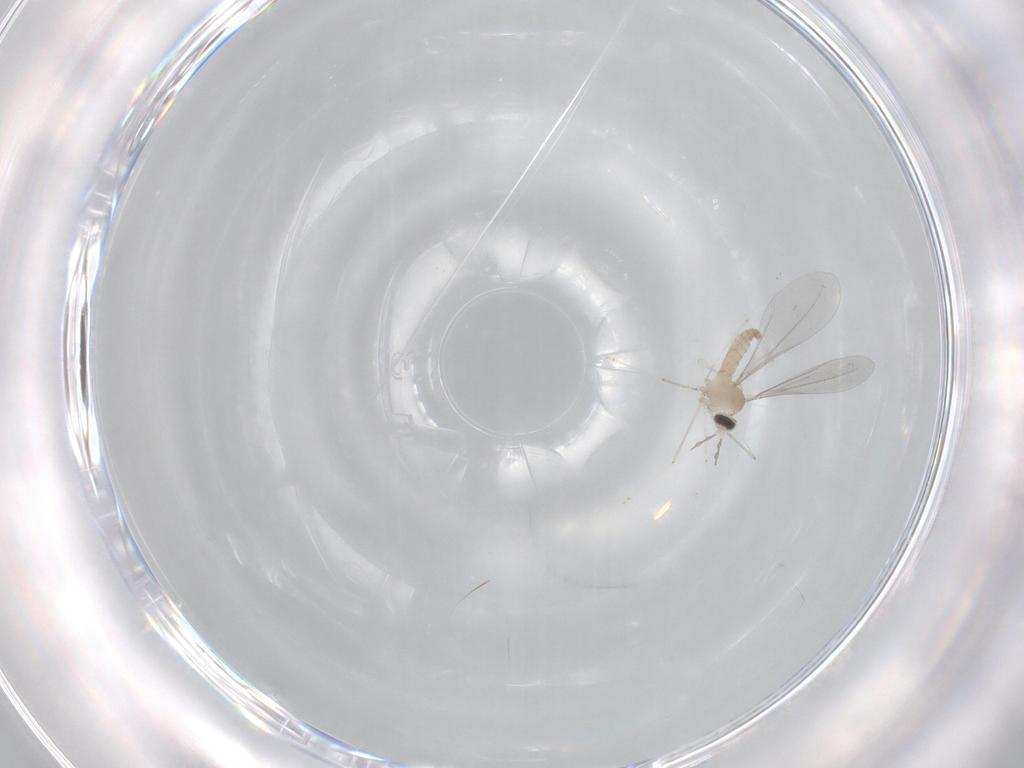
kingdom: Animalia
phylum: Arthropoda
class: Insecta
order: Diptera
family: Cecidomyiidae
